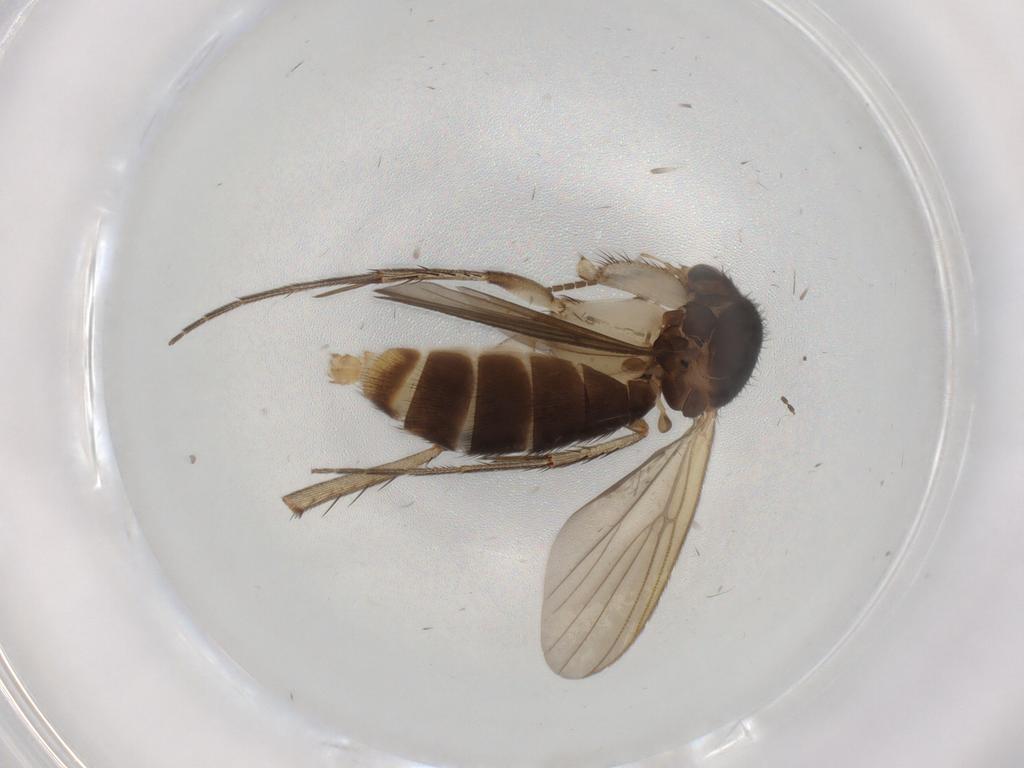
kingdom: Animalia
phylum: Arthropoda
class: Insecta
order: Diptera
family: Mycetophilidae
